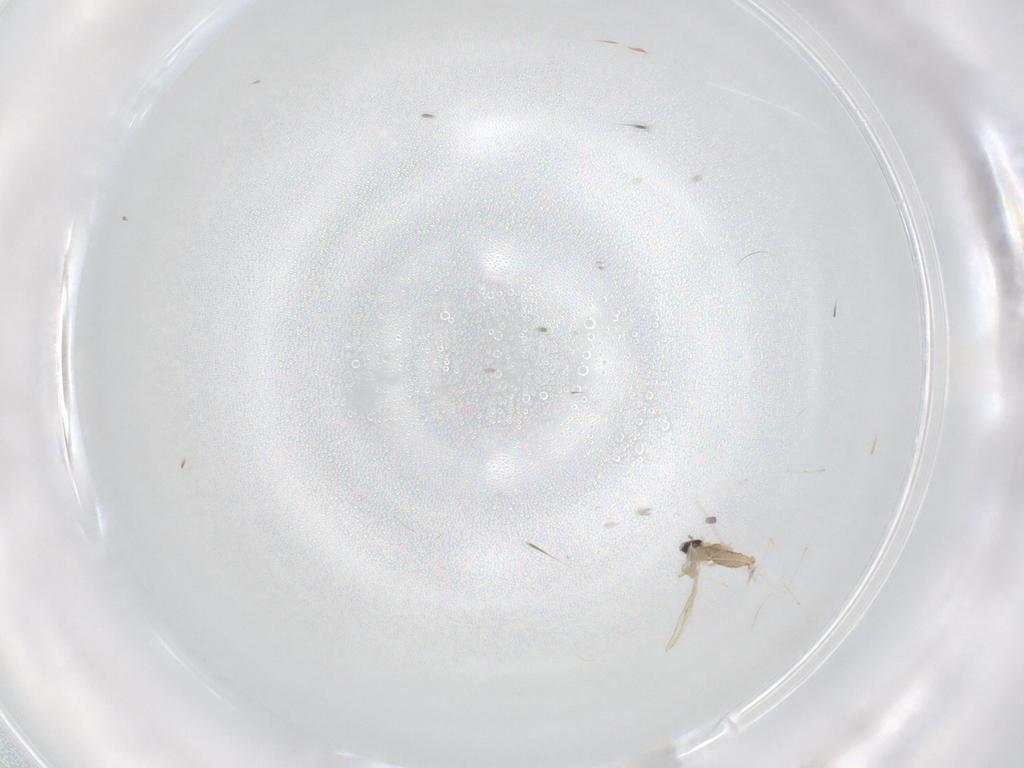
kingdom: Animalia
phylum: Arthropoda
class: Insecta
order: Diptera
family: Cecidomyiidae
